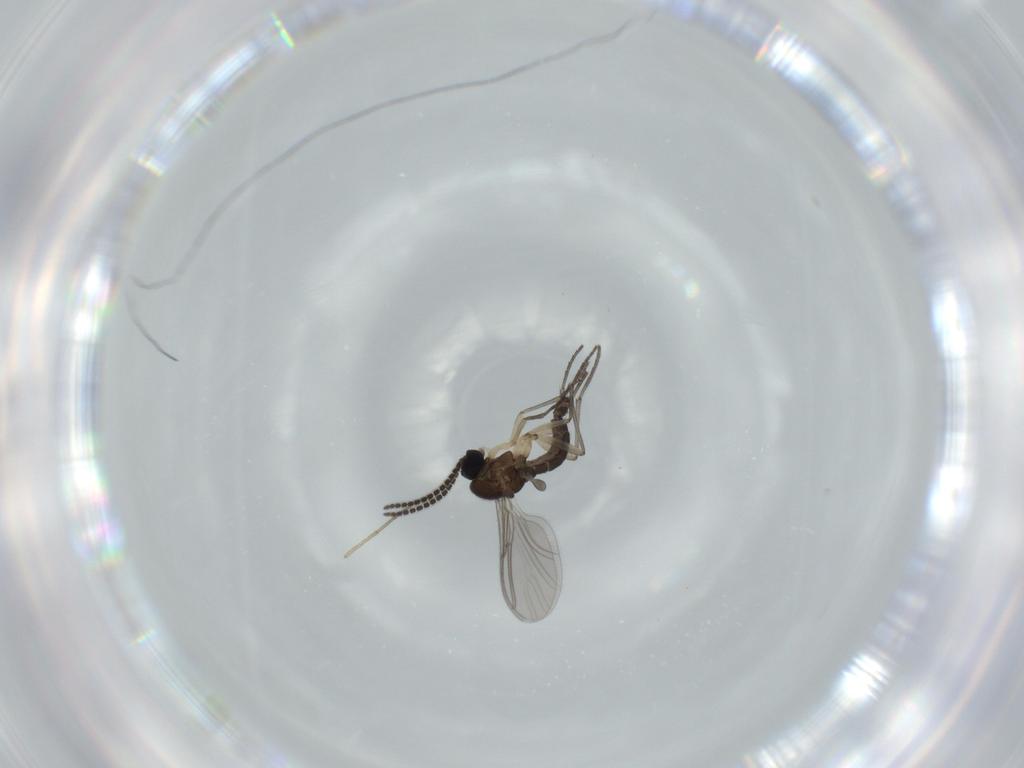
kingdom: Animalia
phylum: Arthropoda
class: Insecta
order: Diptera
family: Sciaridae
